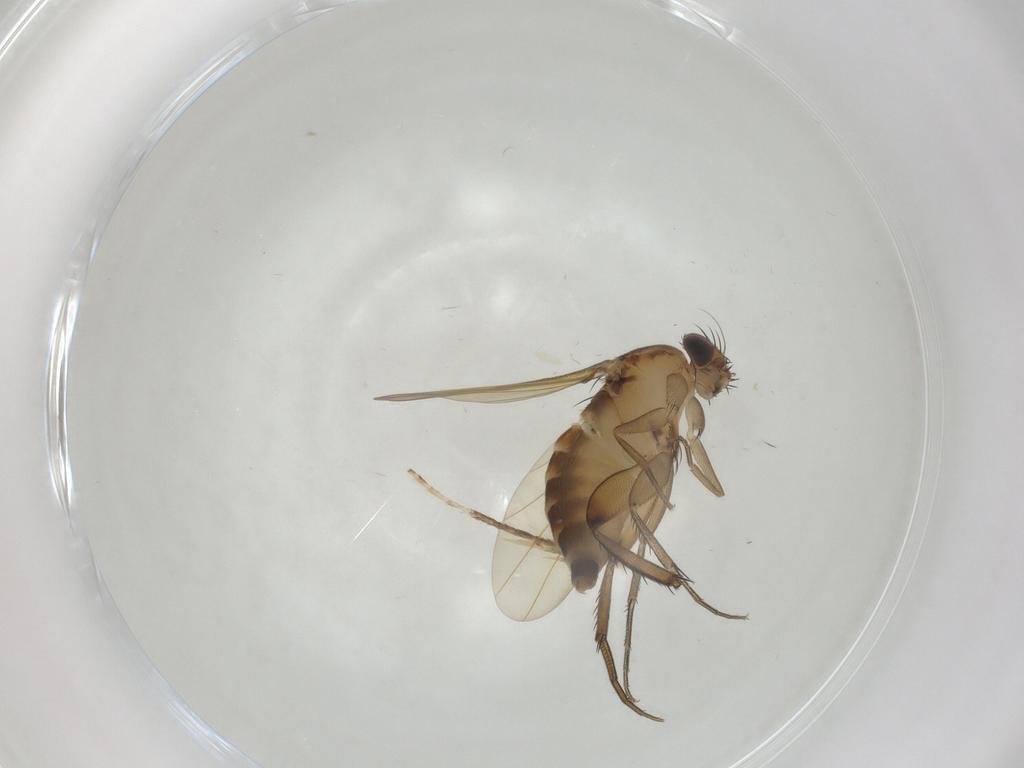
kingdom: Animalia
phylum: Arthropoda
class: Insecta
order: Diptera
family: Phoridae
